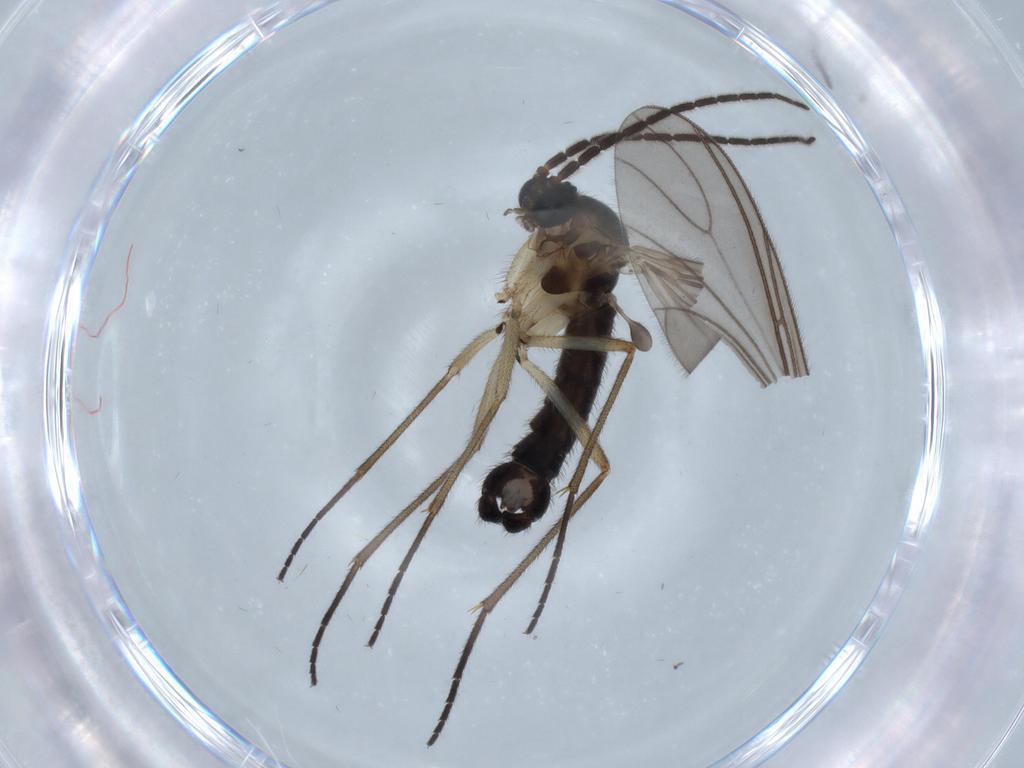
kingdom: Animalia
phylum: Arthropoda
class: Insecta
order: Diptera
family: Sciaridae
